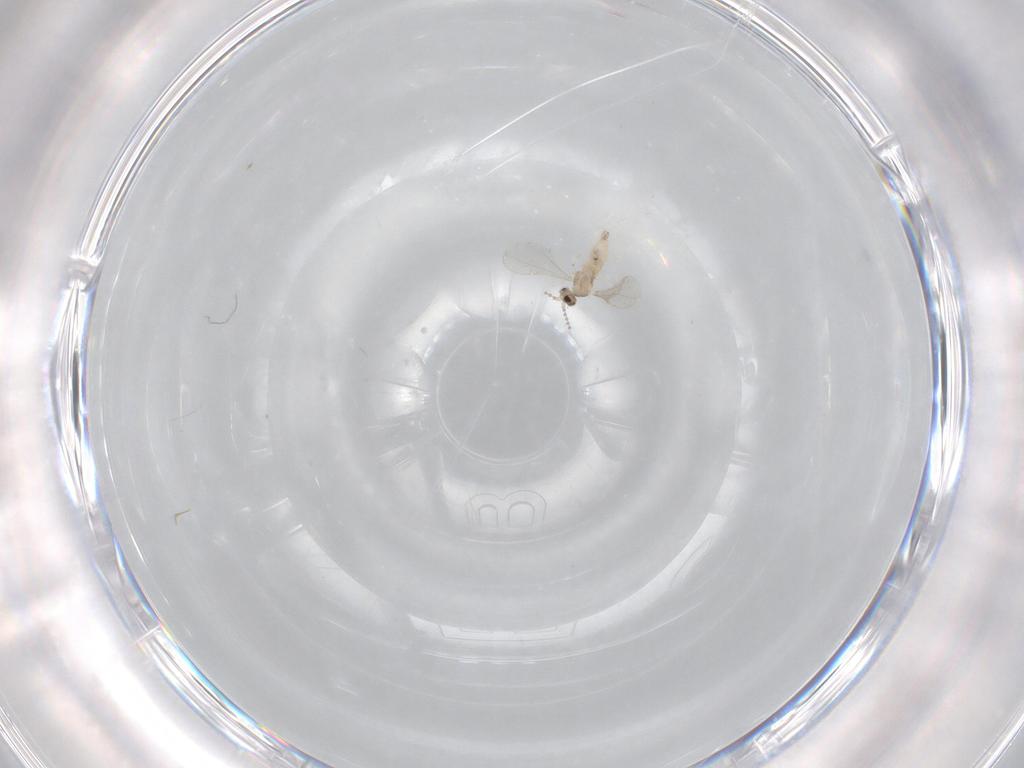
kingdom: Animalia
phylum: Arthropoda
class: Insecta
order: Diptera
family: Cecidomyiidae
